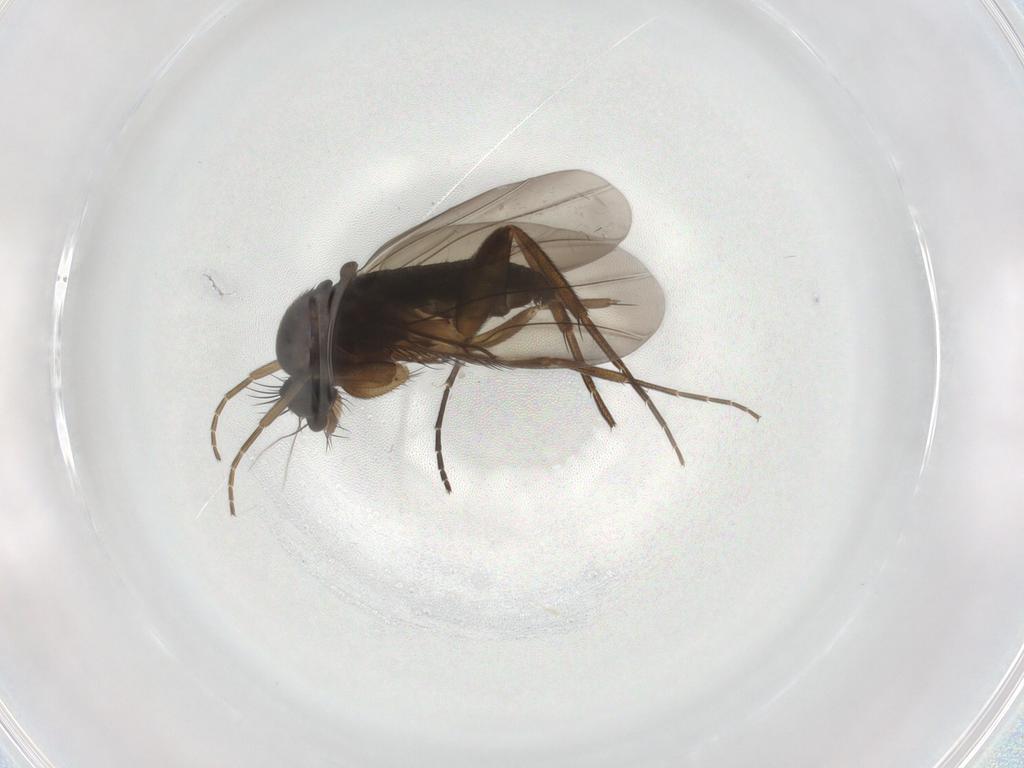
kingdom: Animalia
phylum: Arthropoda
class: Insecta
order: Diptera
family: Phoridae
